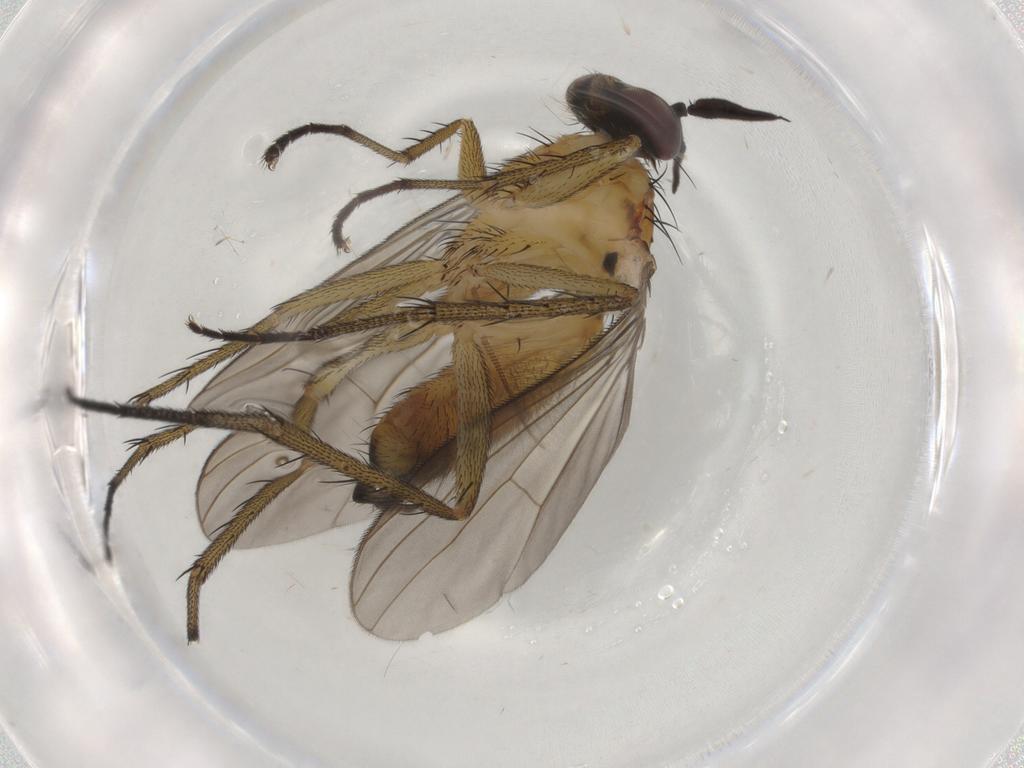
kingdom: Animalia
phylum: Arthropoda
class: Insecta
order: Diptera
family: Dolichopodidae
